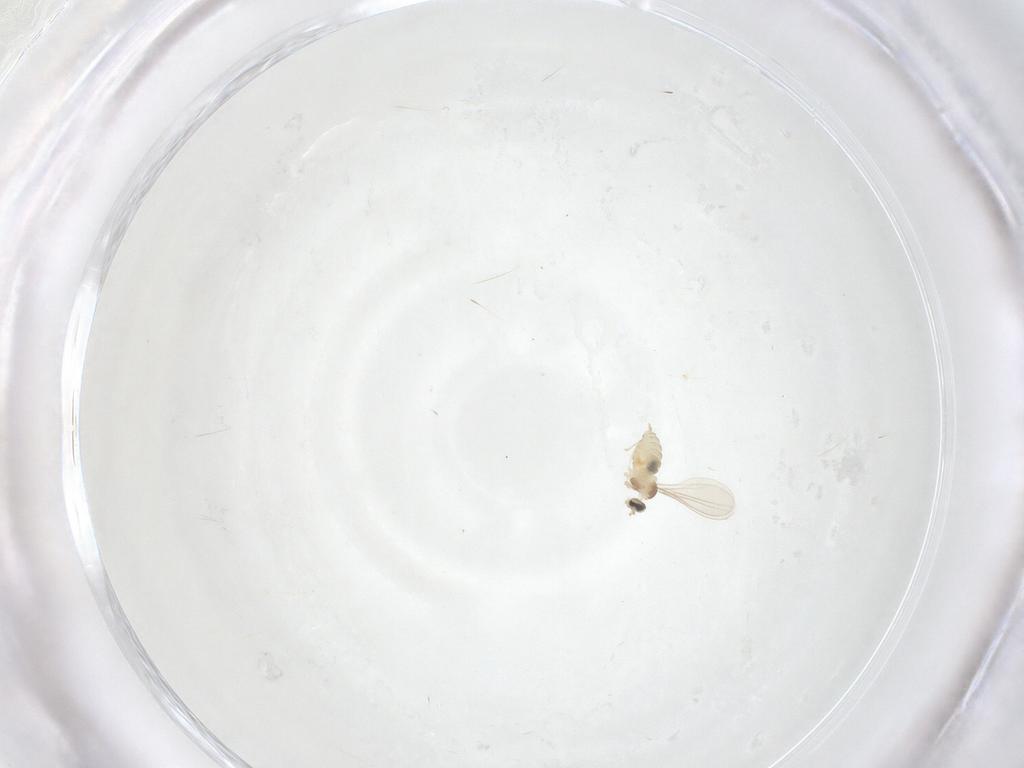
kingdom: Animalia
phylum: Arthropoda
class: Insecta
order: Diptera
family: Cecidomyiidae
